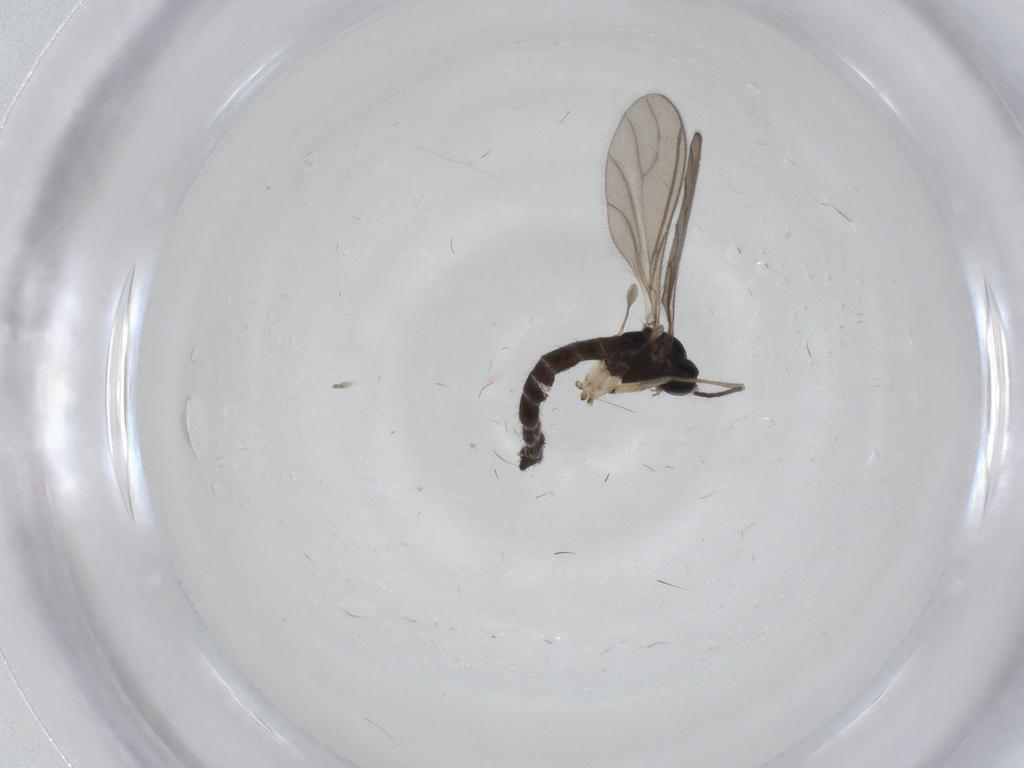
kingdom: Animalia
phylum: Arthropoda
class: Insecta
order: Diptera
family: Sciaridae
